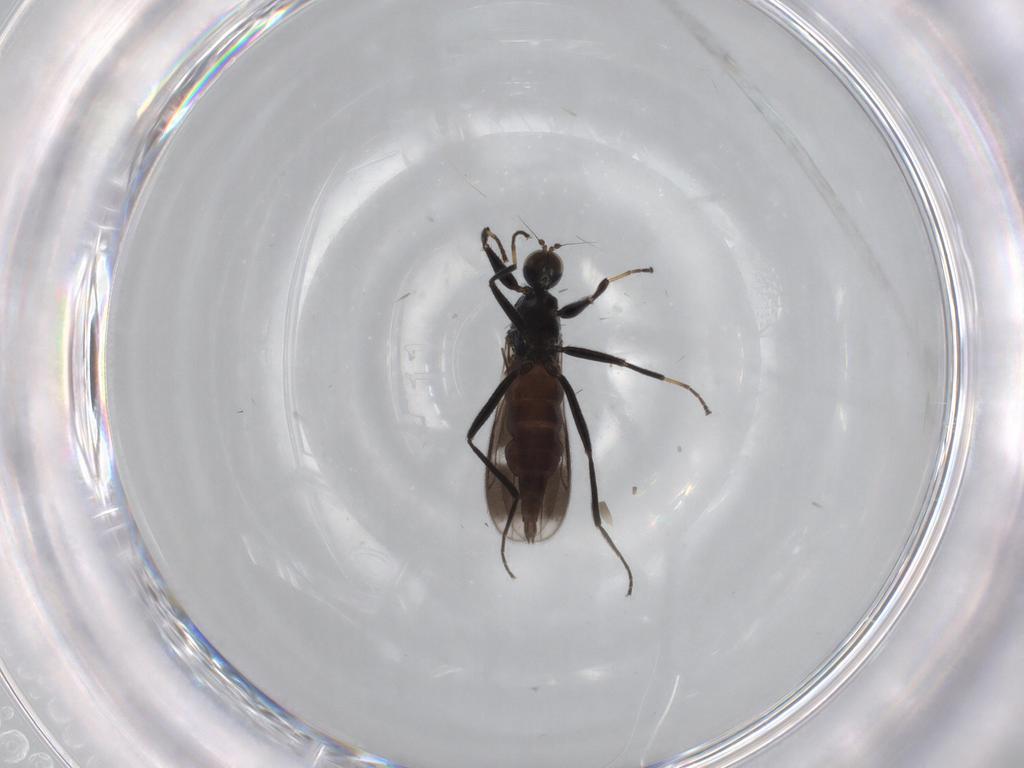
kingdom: Animalia
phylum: Arthropoda
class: Insecta
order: Diptera
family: Hybotidae
